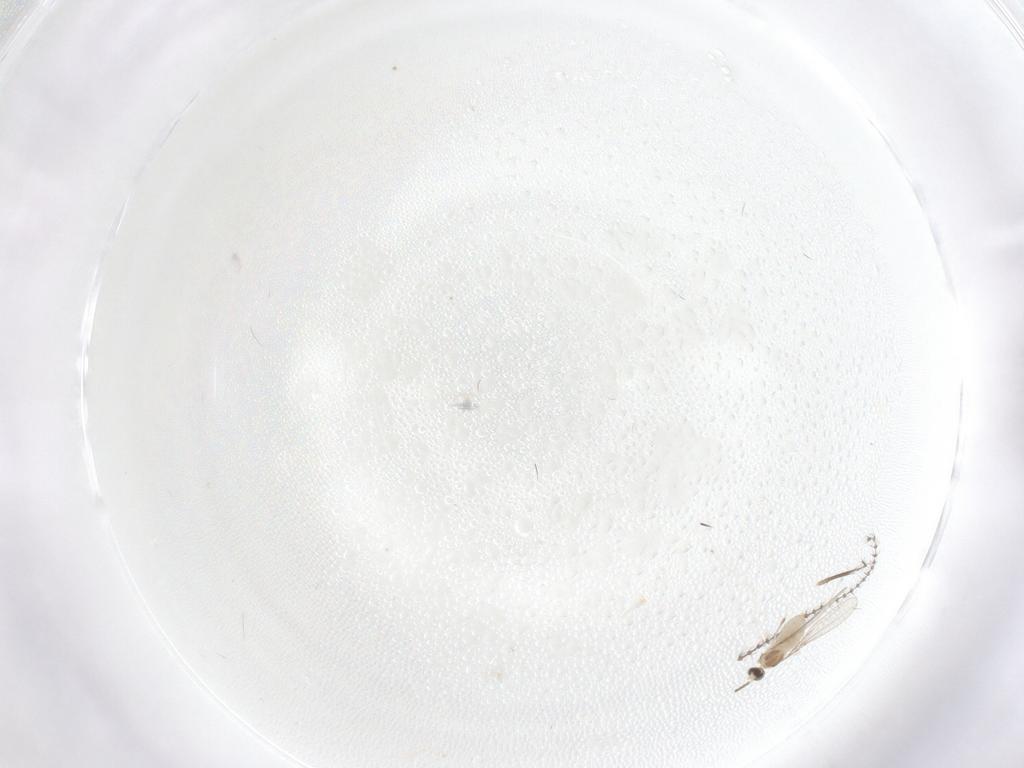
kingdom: Animalia
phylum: Arthropoda
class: Insecta
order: Diptera
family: Cecidomyiidae
